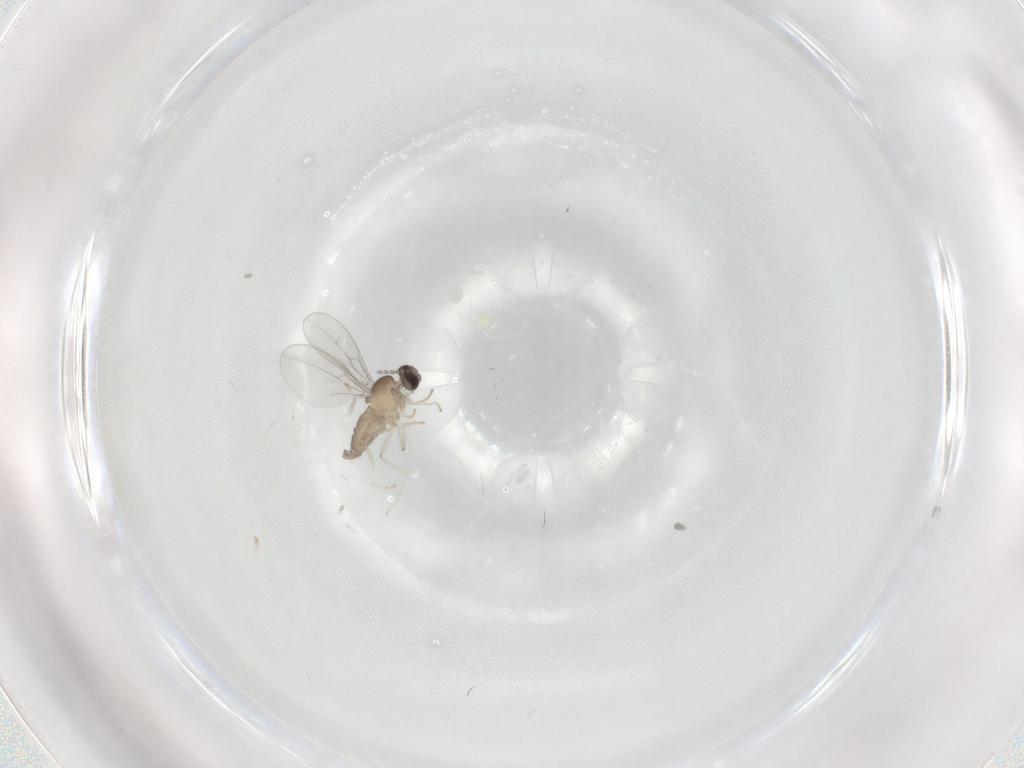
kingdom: Animalia
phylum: Arthropoda
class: Insecta
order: Diptera
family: Cecidomyiidae
